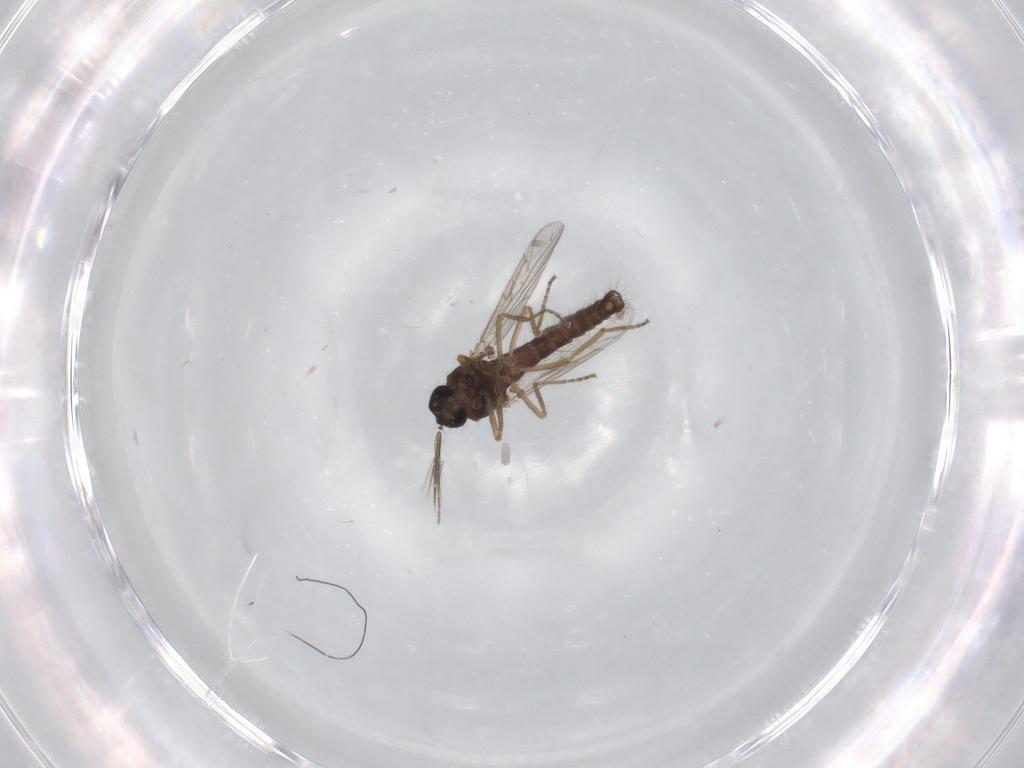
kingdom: Animalia
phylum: Arthropoda
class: Insecta
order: Diptera
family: Ceratopogonidae
